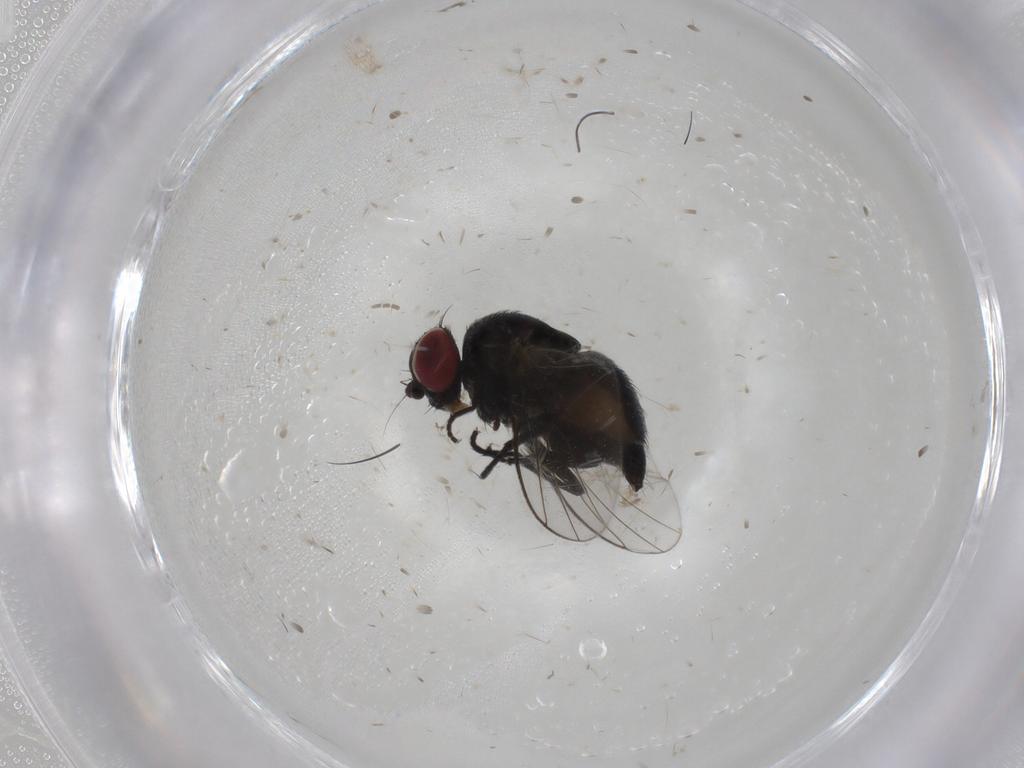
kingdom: Animalia
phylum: Arthropoda
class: Insecta
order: Diptera
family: Agromyzidae
